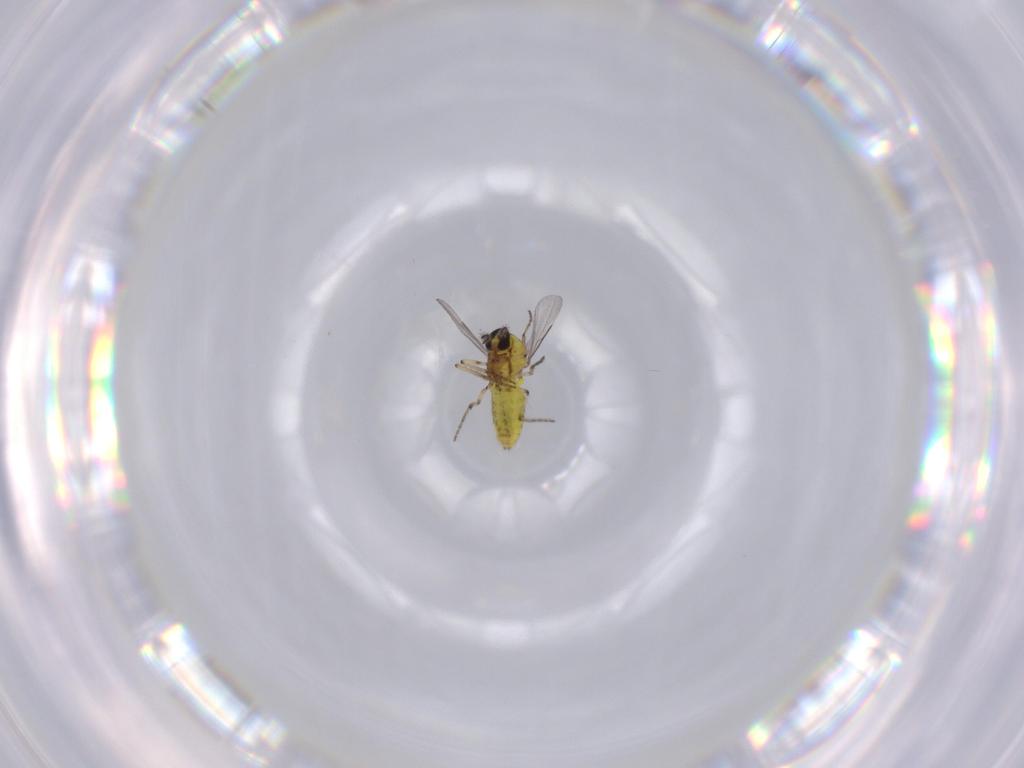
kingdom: Animalia
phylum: Arthropoda
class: Insecta
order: Diptera
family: Ceratopogonidae
